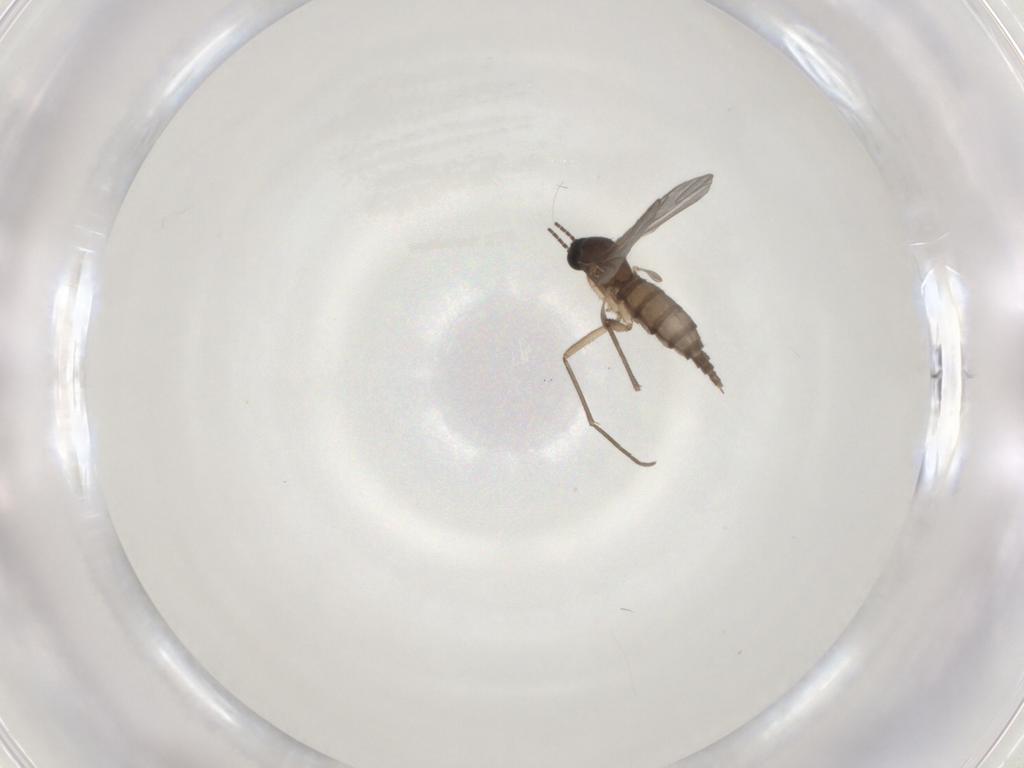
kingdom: Animalia
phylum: Arthropoda
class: Insecta
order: Diptera
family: Sciaridae
